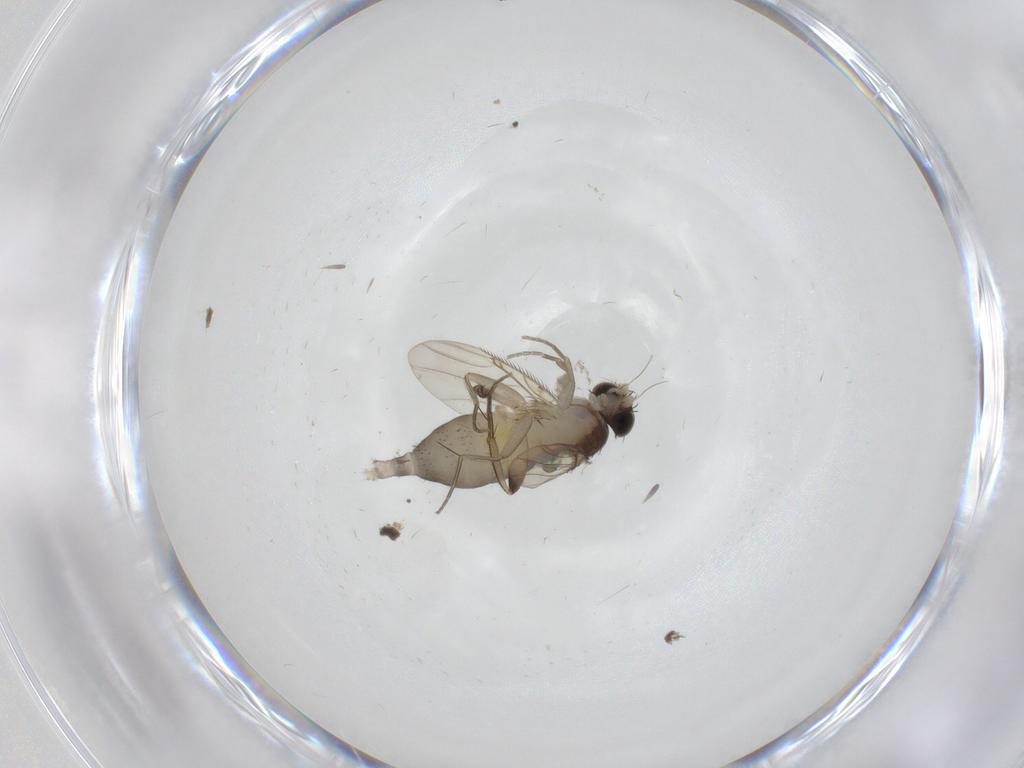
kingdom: Animalia
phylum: Arthropoda
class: Insecta
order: Diptera
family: Phoridae
